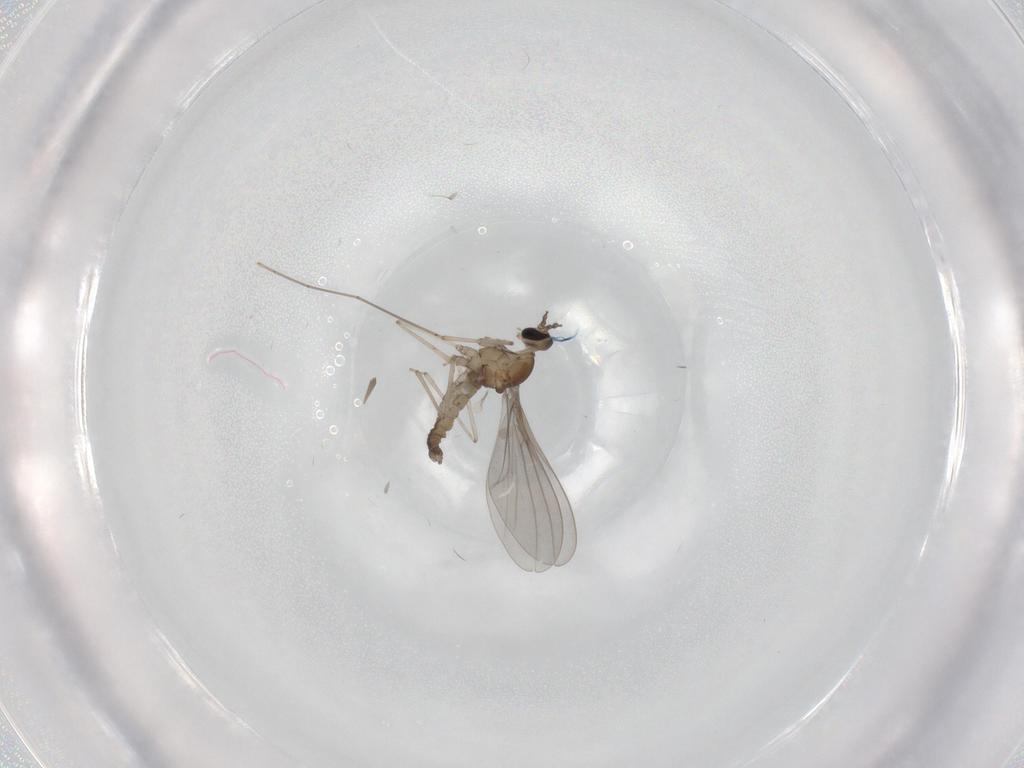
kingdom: Animalia
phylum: Arthropoda
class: Insecta
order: Diptera
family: Cecidomyiidae
